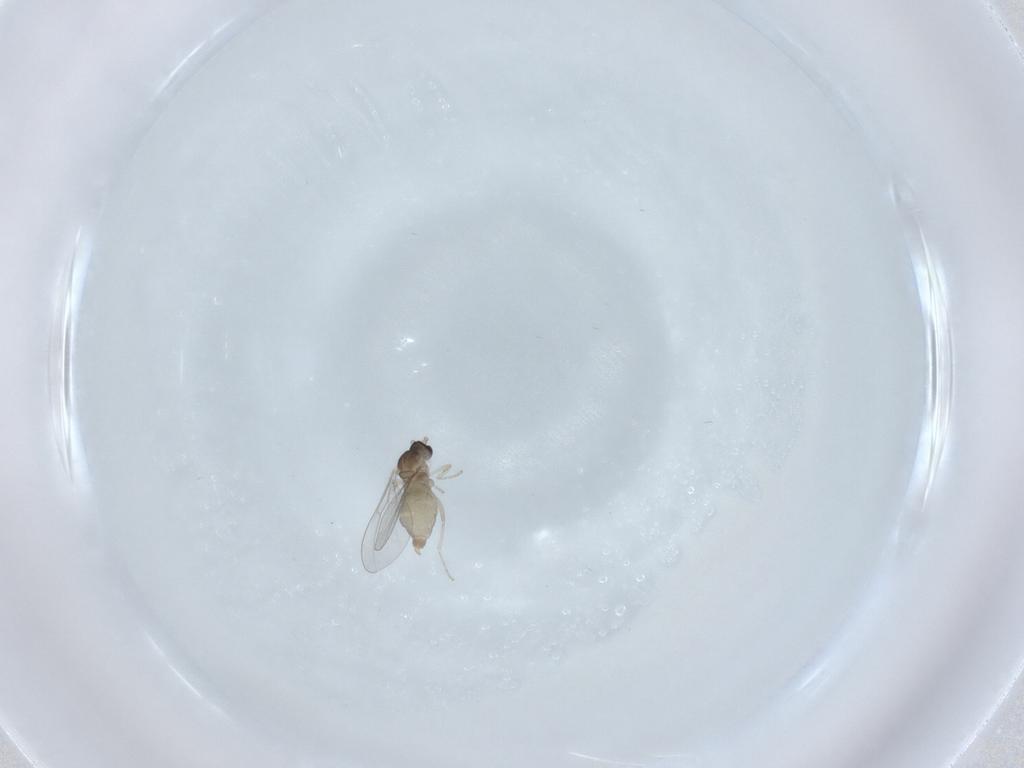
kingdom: Animalia
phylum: Arthropoda
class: Insecta
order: Diptera
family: Cecidomyiidae
